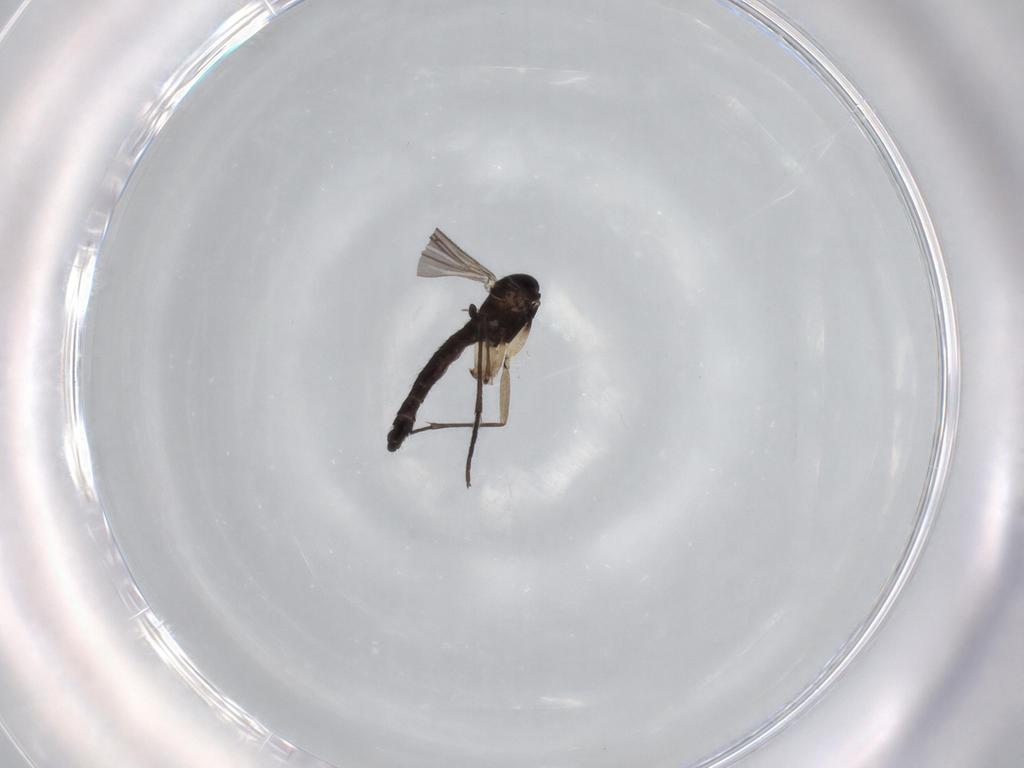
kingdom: Animalia
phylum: Arthropoda
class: Insecta
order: Diptera
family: Sciaridae
